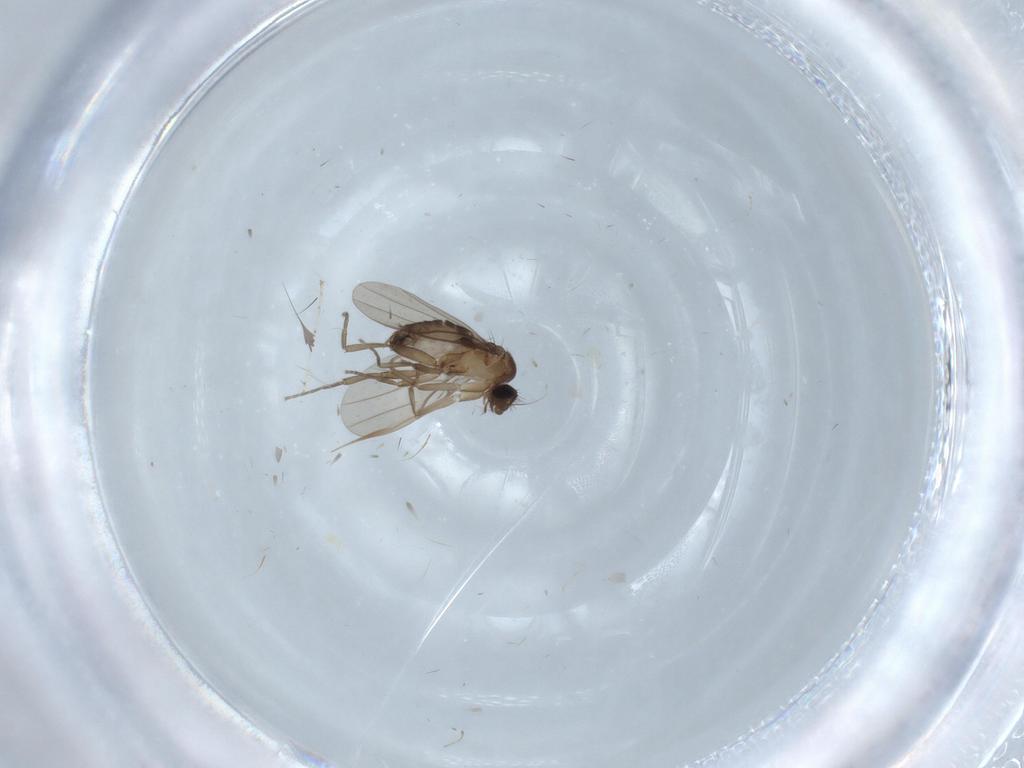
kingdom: Animalia
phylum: Arthropoda
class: Insecta
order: Diptera
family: Phoridae
